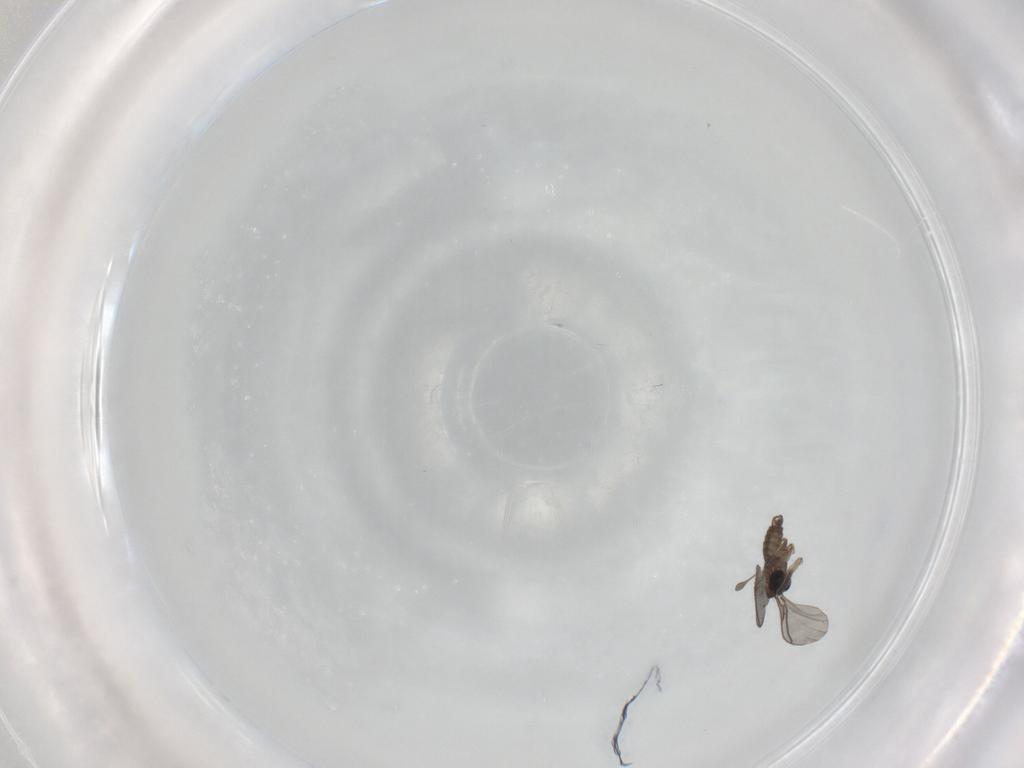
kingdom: Animalia
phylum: Arthropoda
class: Insecta
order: Diptera
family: Sciaridae
